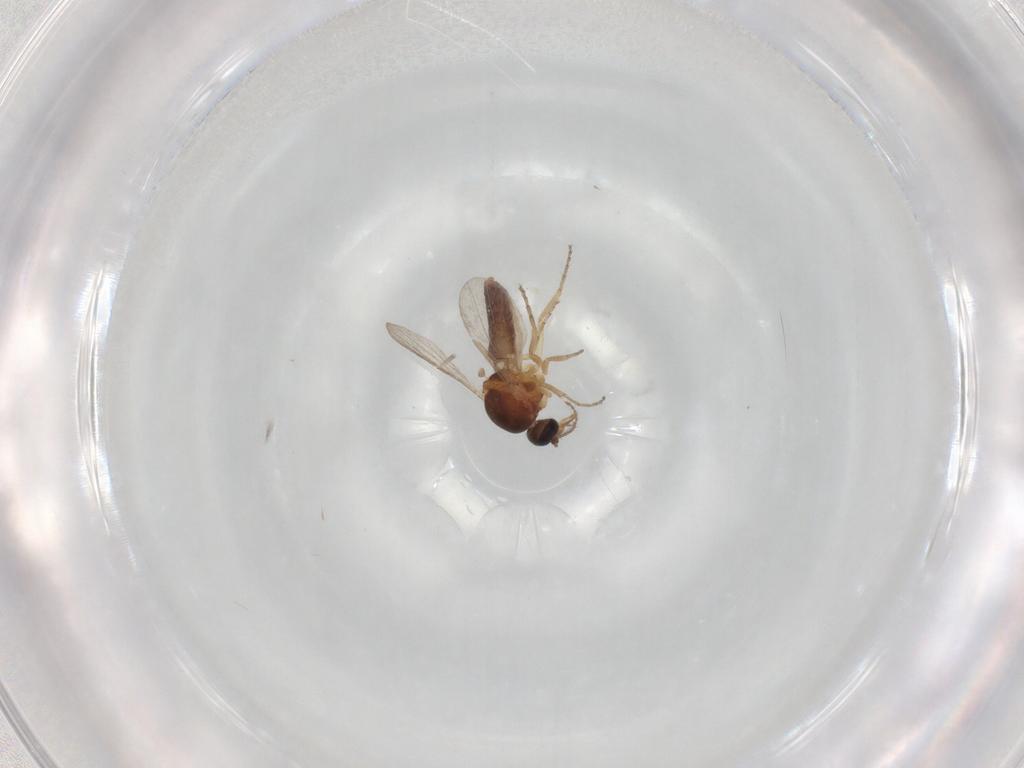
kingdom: Animalia
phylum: Arthropoda
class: Insecta
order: Diptera
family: Ceratopogonidae
